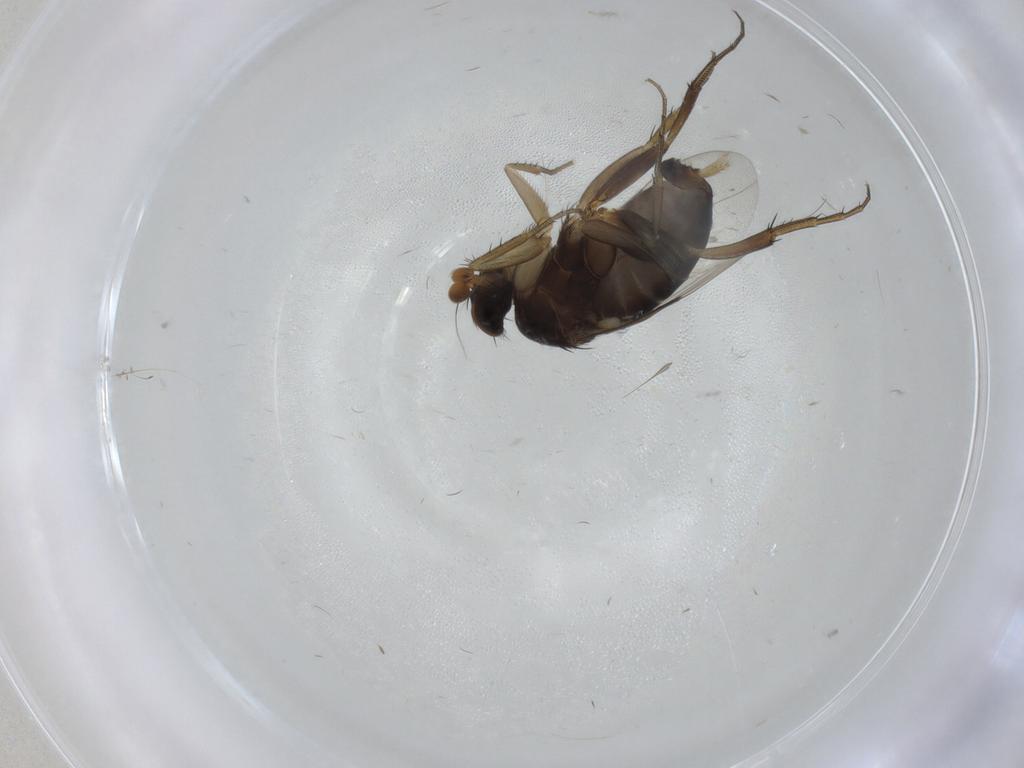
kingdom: Animalia
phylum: Arthropoda
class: Insecta
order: Diptera
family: Phoridae
